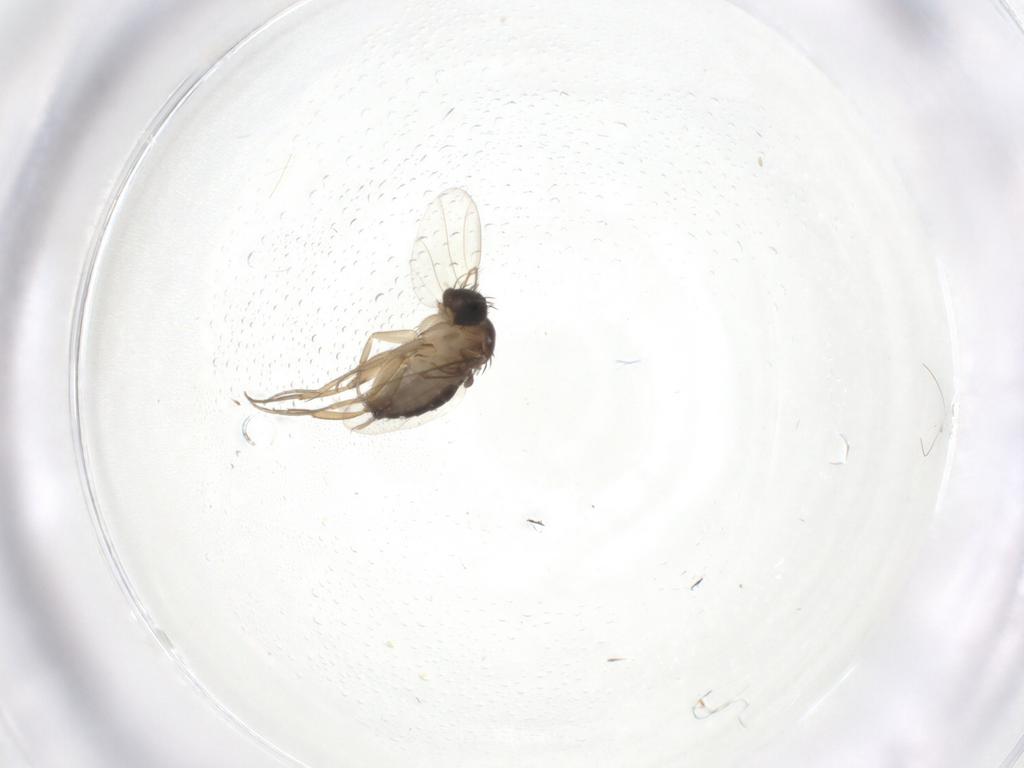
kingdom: Animalia
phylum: Arthropoda
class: Insecta
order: Diptera
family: Phoridae
